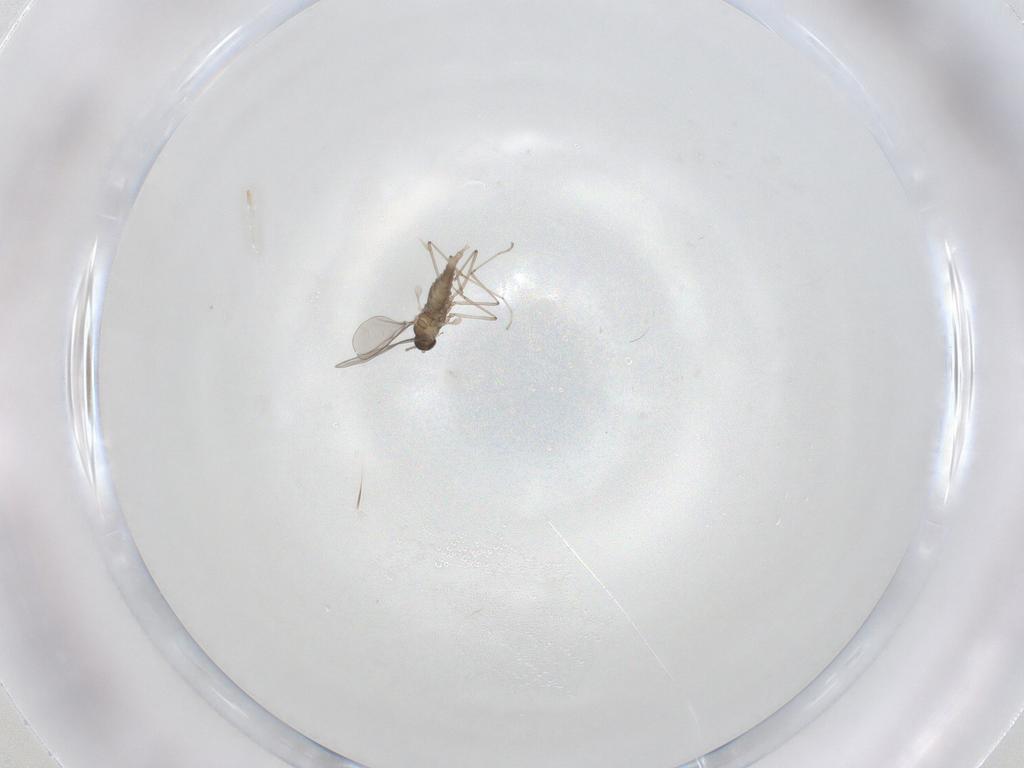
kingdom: Animalia
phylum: Arthropoda
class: Insecta
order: Diptera
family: Cecidomyiidae
